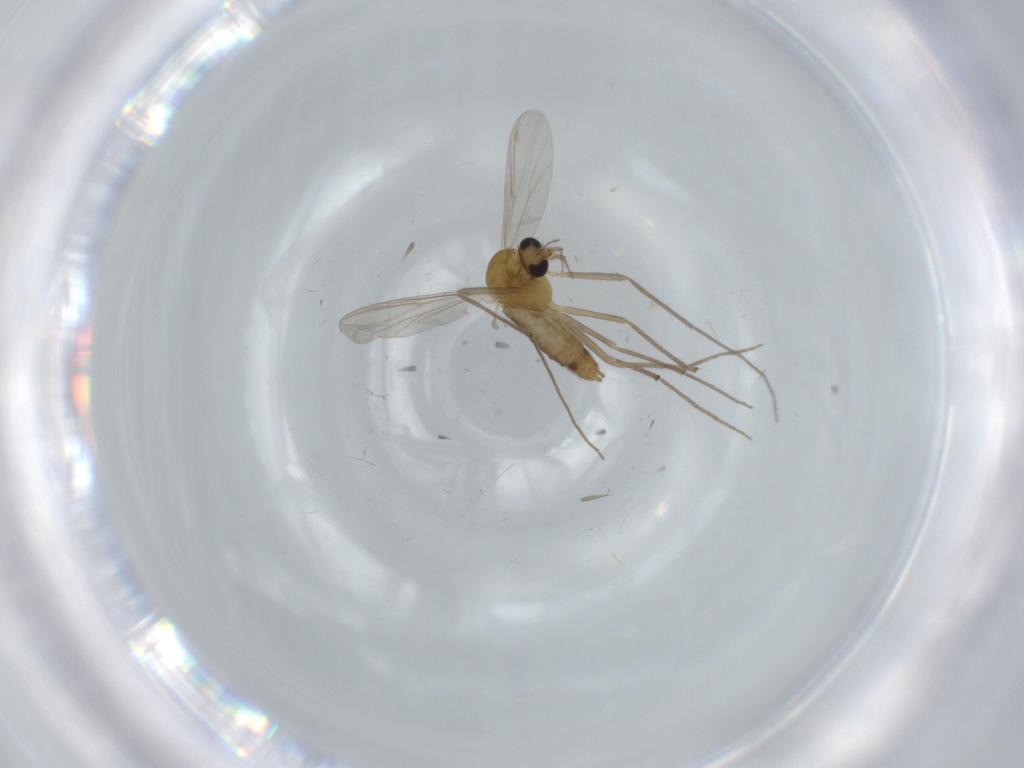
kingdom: Animalia
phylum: Arthropoda
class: Insecta
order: Diptera
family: Chironomidae
